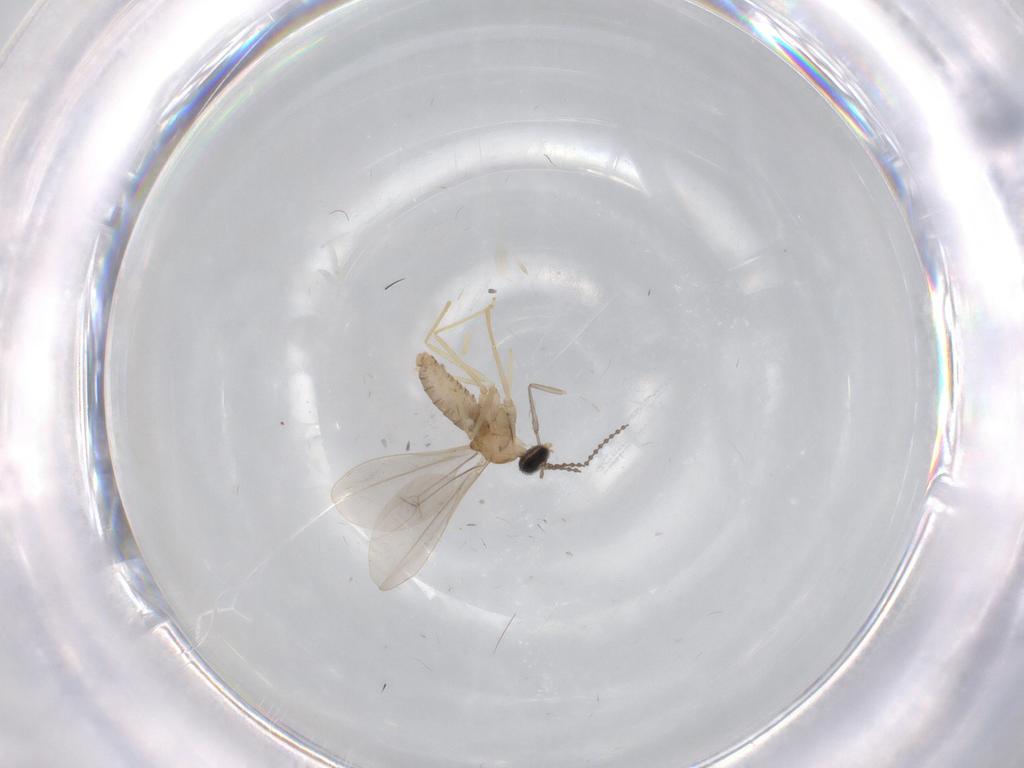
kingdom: Animalia
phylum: Arthropoda
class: Insecta
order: Diptera
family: Cecidomyiidae
